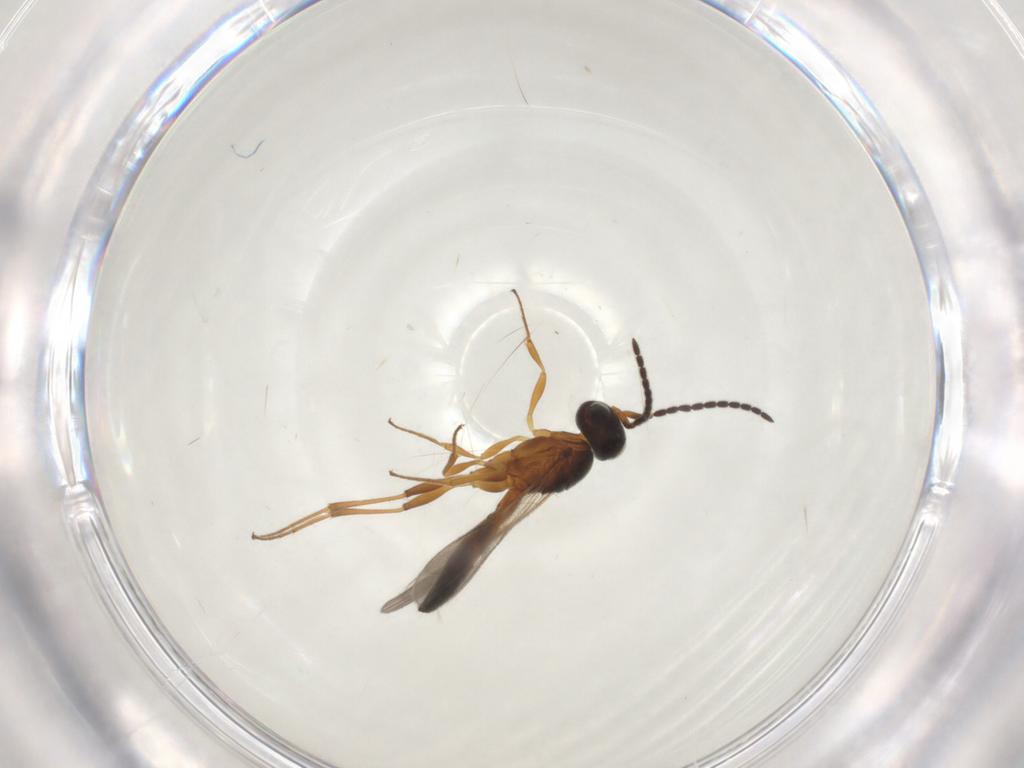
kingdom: Animalia
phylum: Arthropoda
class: Insecta
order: Hymenoptera
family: Scelionidae
